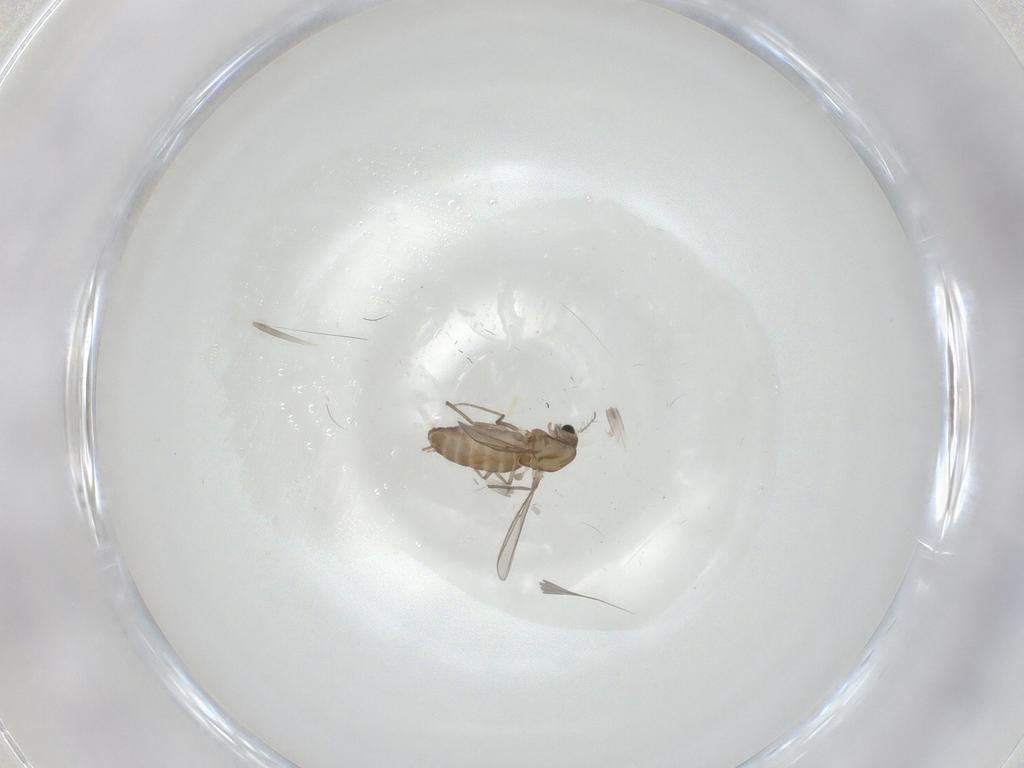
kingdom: Animalia
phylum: Arthropoda
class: Insecta
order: Diptera
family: Chironomidae
